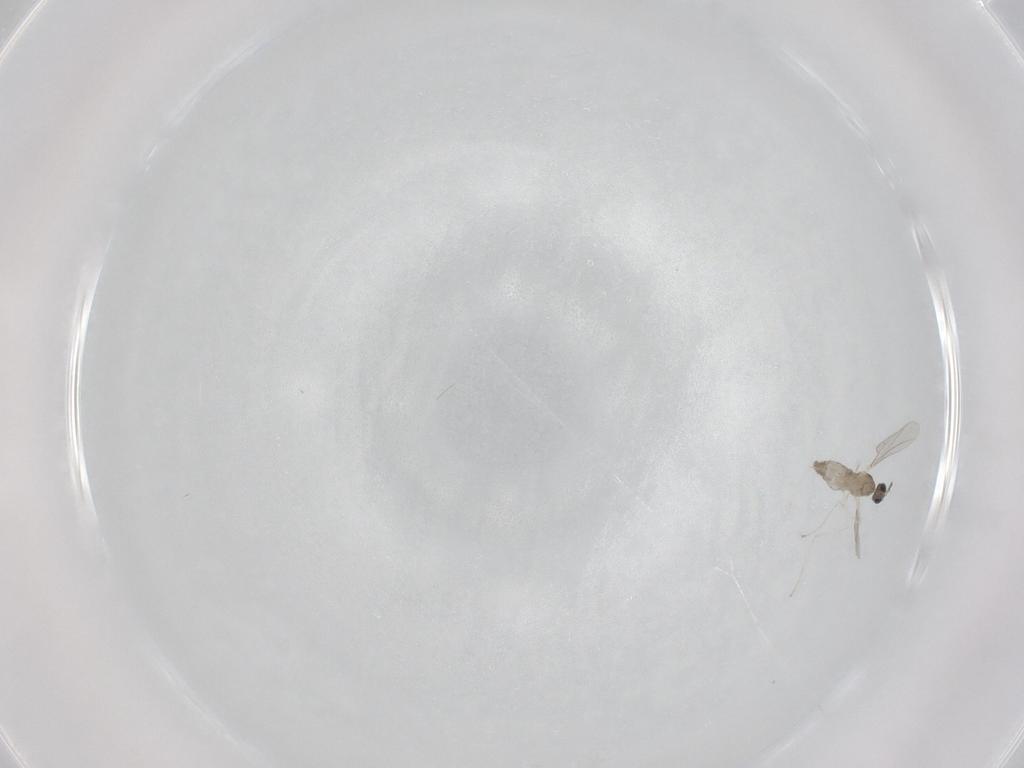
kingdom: Animalia
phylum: Arthropoda
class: Insecta
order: Diptera
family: Cecidomyiidae
